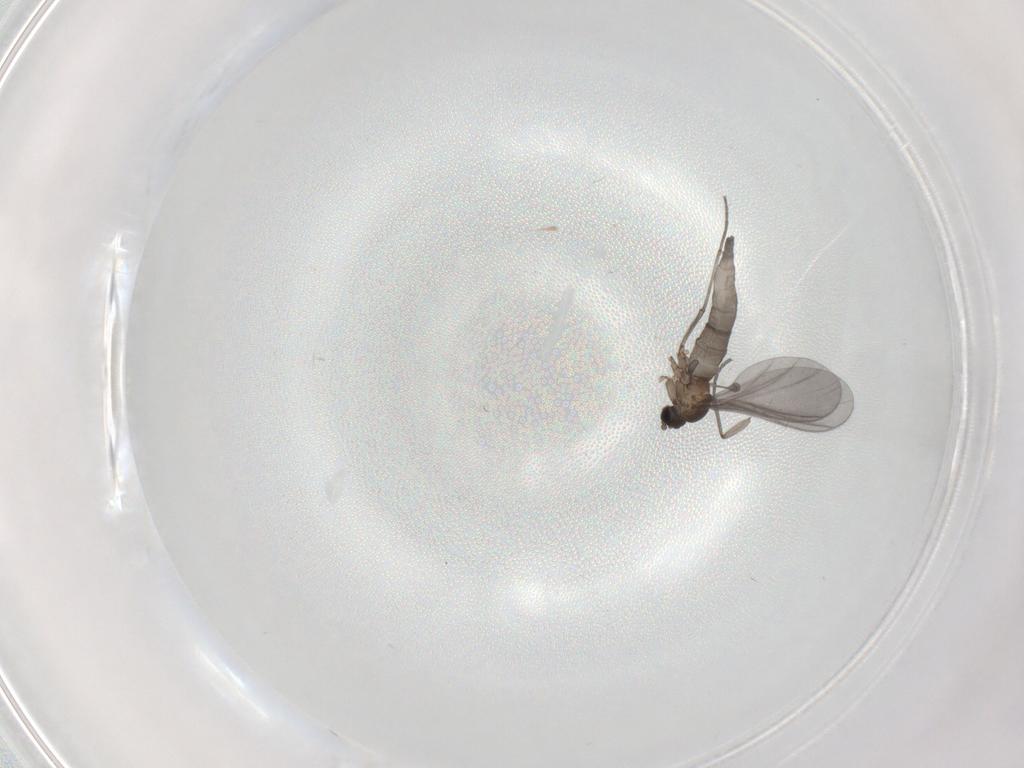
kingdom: Animalia
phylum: Arthropoda
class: Insecta
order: Diptera
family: Sciaridae
